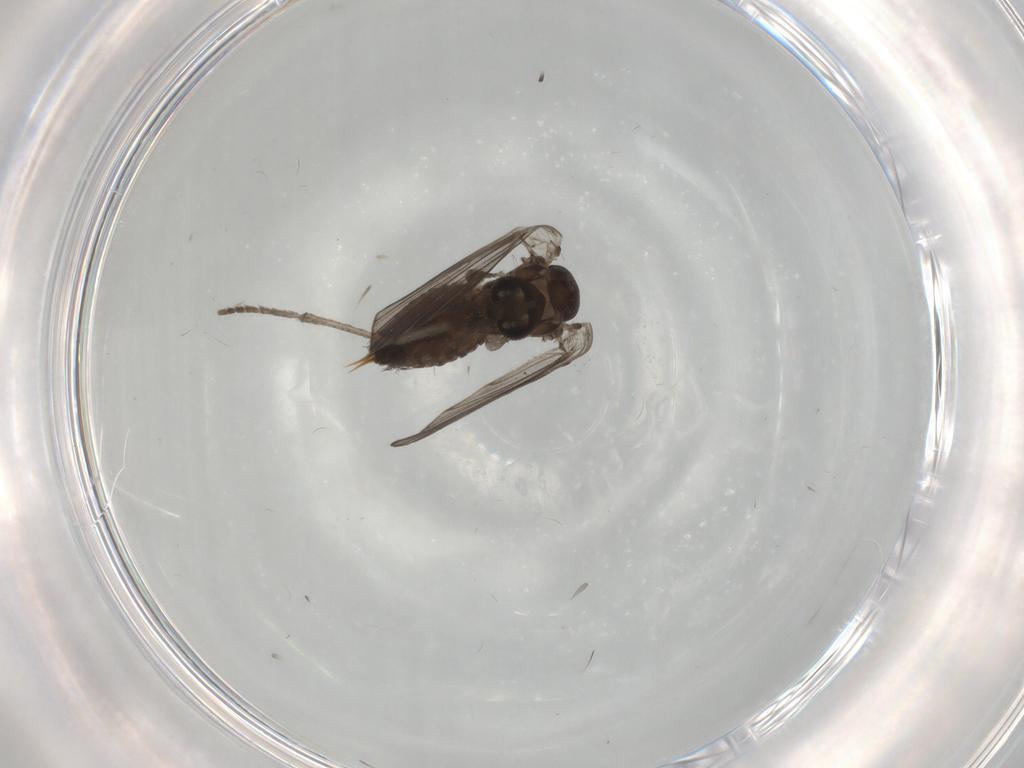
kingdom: Animalia
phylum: Arthropoda
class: Insecta
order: Diptera
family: Psychodidae
